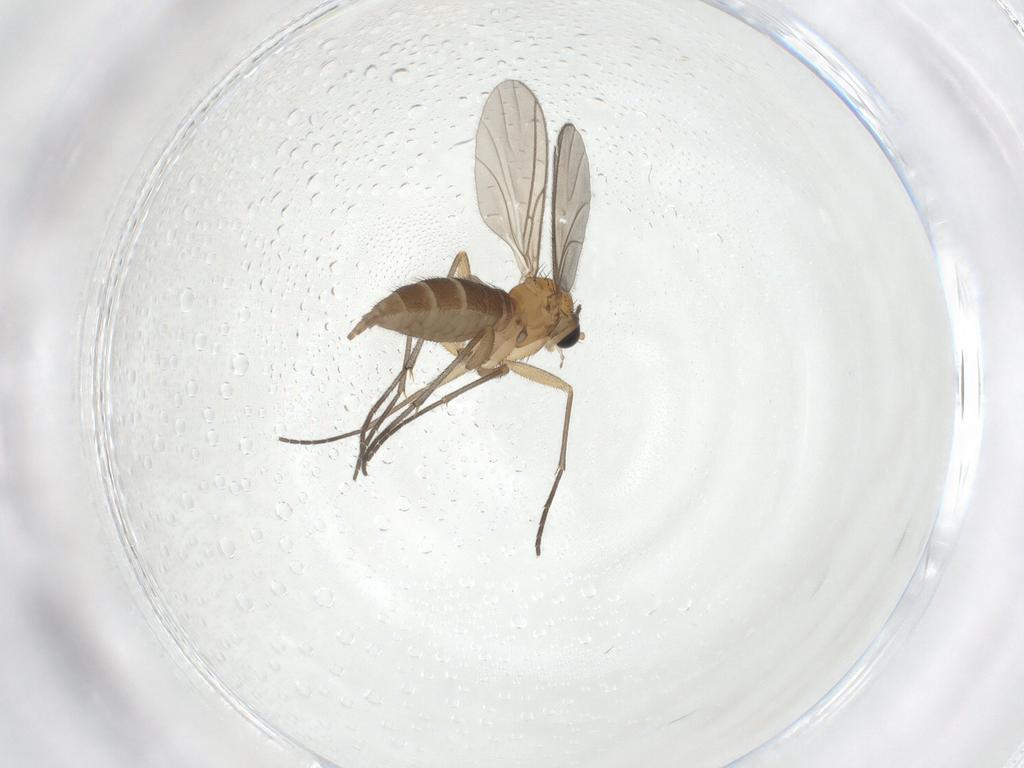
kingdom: Animalia
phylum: Arthropoda
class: Insecta
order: Diptera
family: Sciaridae
